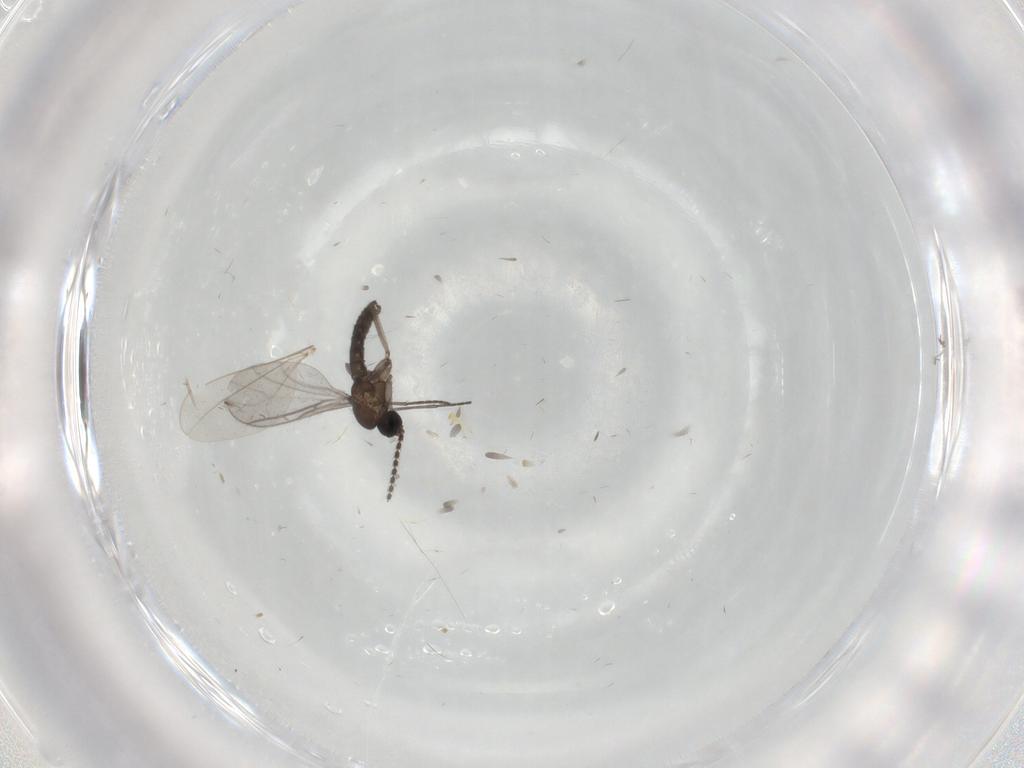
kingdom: Animalia
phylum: Arthropoda
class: Insecta
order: Diptera
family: Sciaridae
